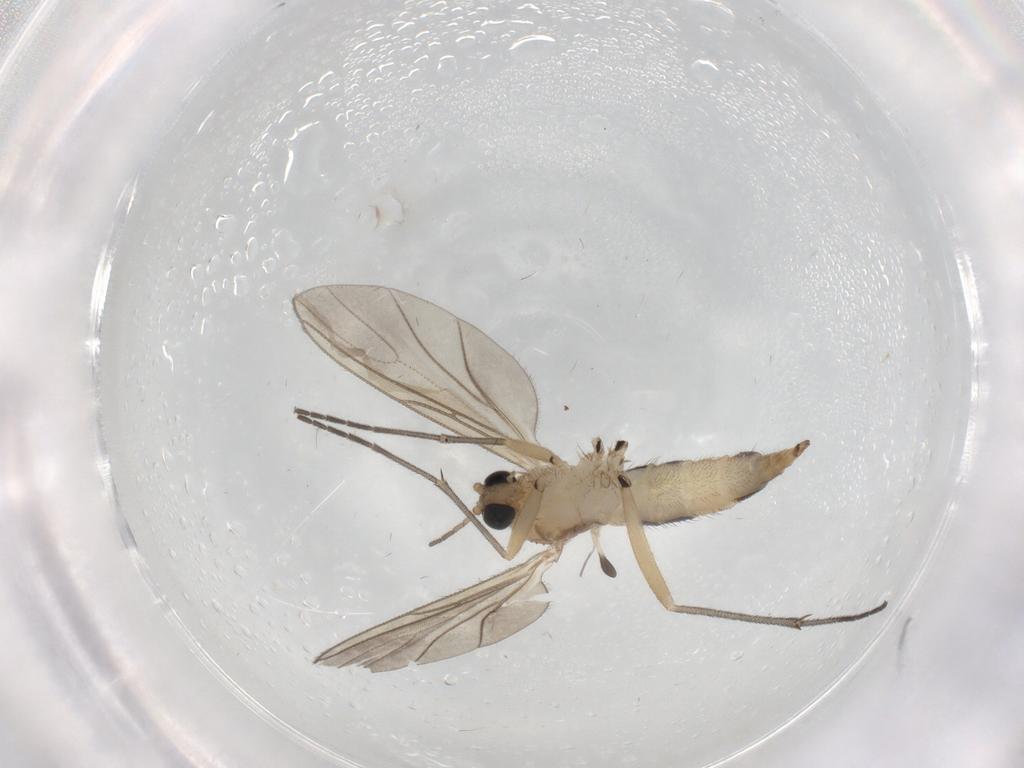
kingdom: Animalia
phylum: Arthropoda
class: Insecta
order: Diptera
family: Cecidomyiidae
